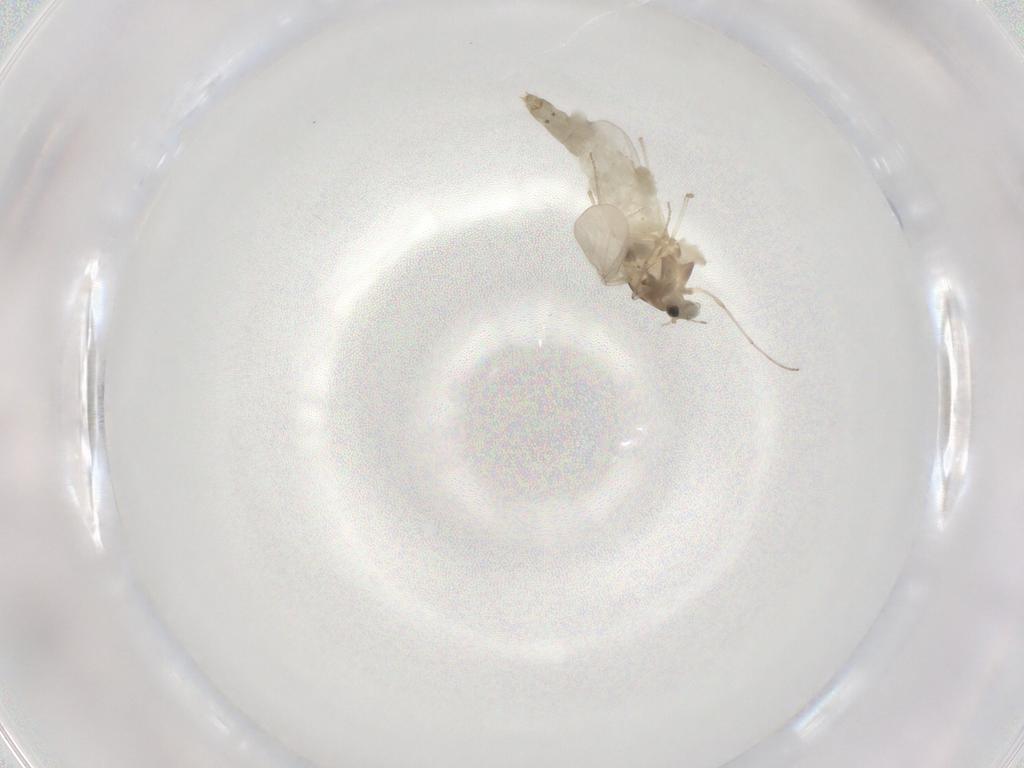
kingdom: Animalia
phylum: Arthropoda
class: Insecta
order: Diptera
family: Chironomidae
